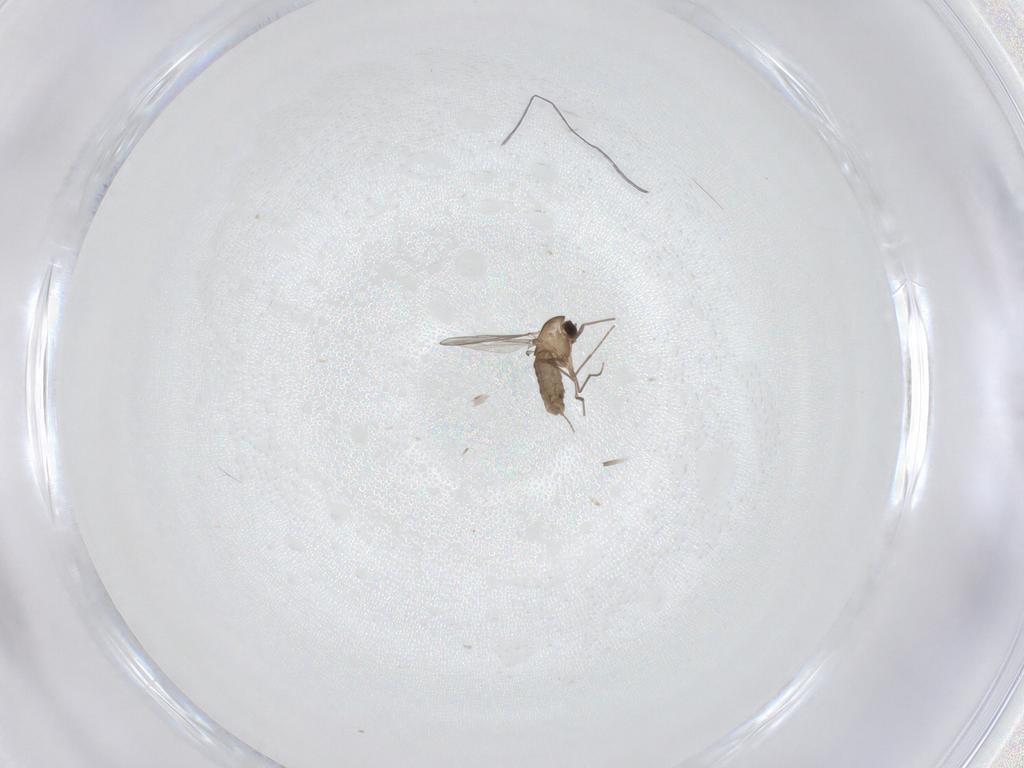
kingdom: Animalia
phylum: Arthropoda
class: Insecta
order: Diptera
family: Chironomidae
